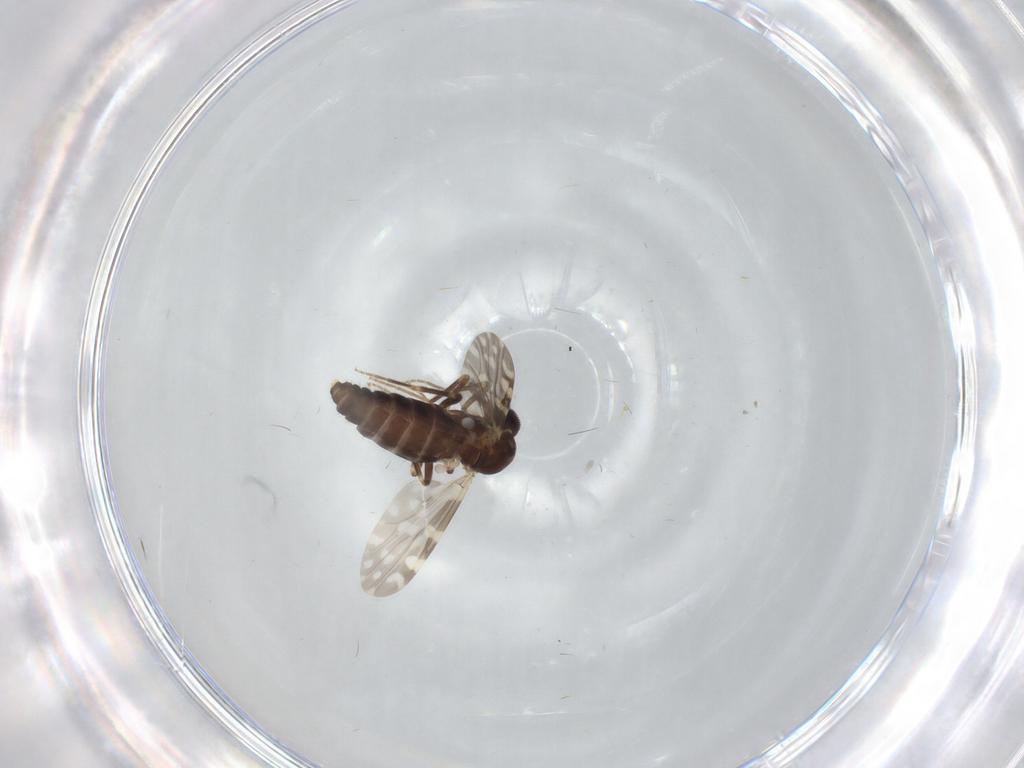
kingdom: Animalia
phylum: Arthropoda
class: Insecta
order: Diptera
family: Ceratopogonidae
